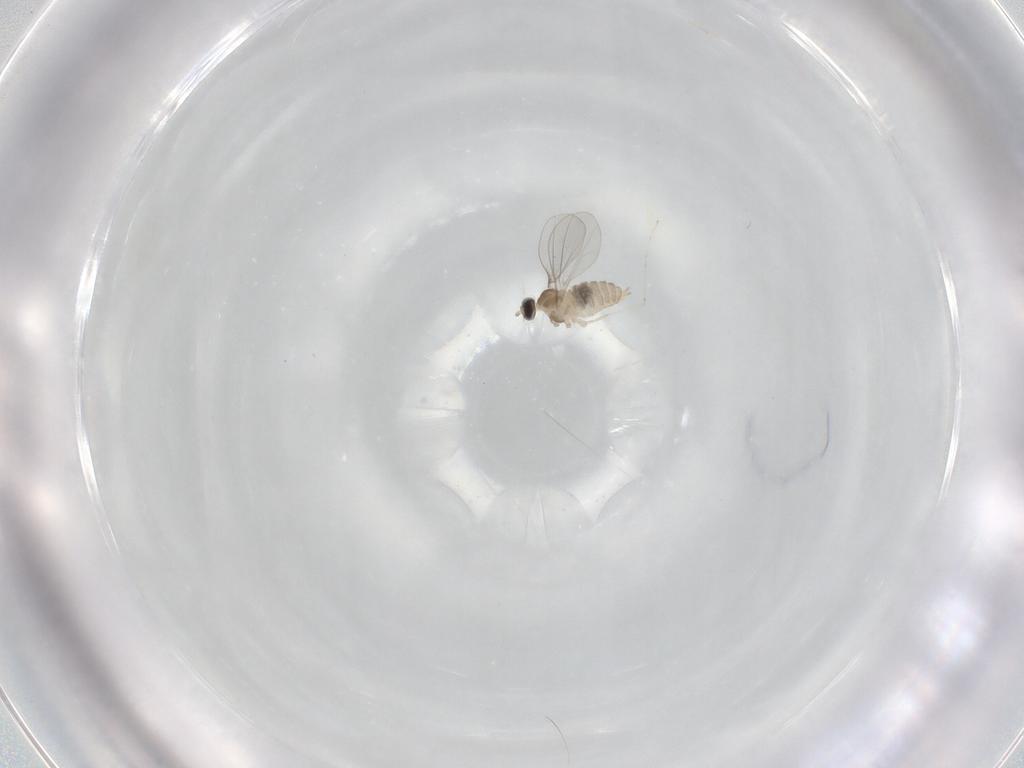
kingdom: Animalia
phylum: Arthropoda
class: Insecta
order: Diptera
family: Cecidomyiidae
